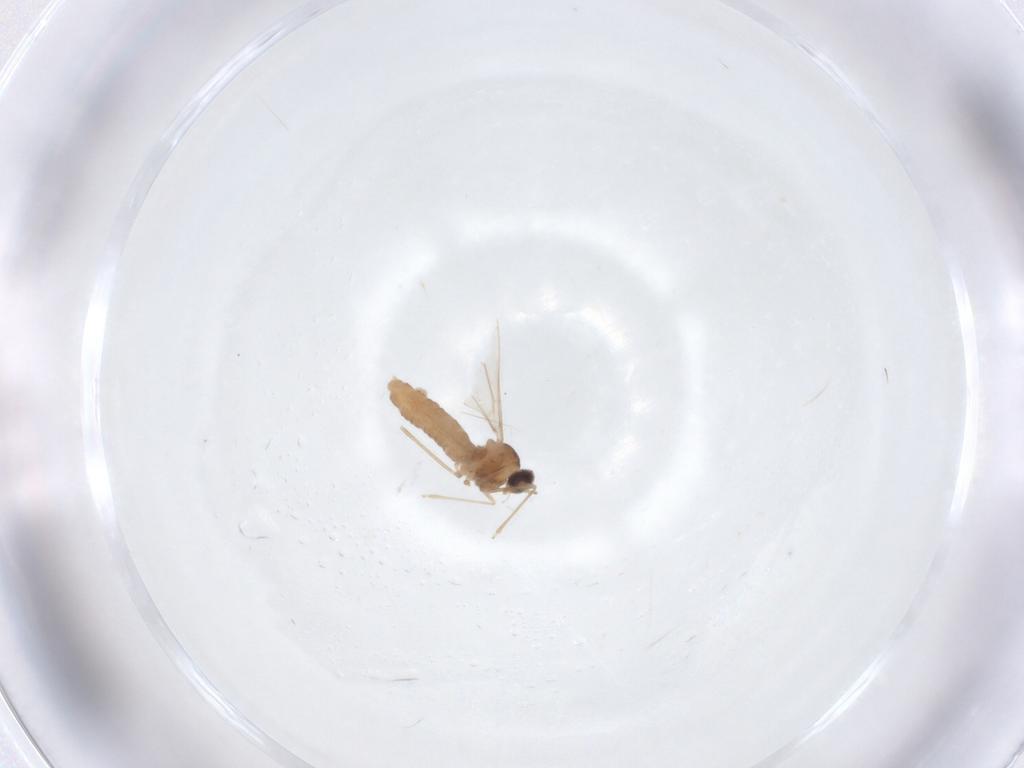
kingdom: Animalia
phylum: Arthropoda
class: Insecta
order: Diptera
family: Cecidomyiidae
